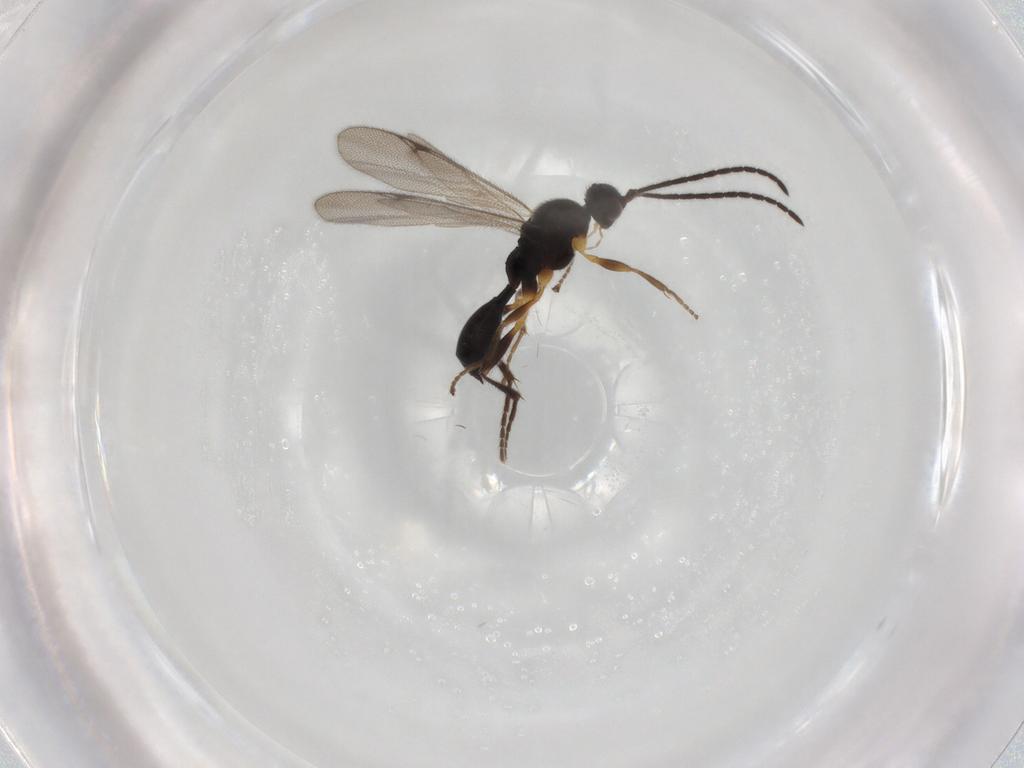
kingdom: Animalia
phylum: Arthropoda
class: Insecta
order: Hymenoptera
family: Proctotrupidae
